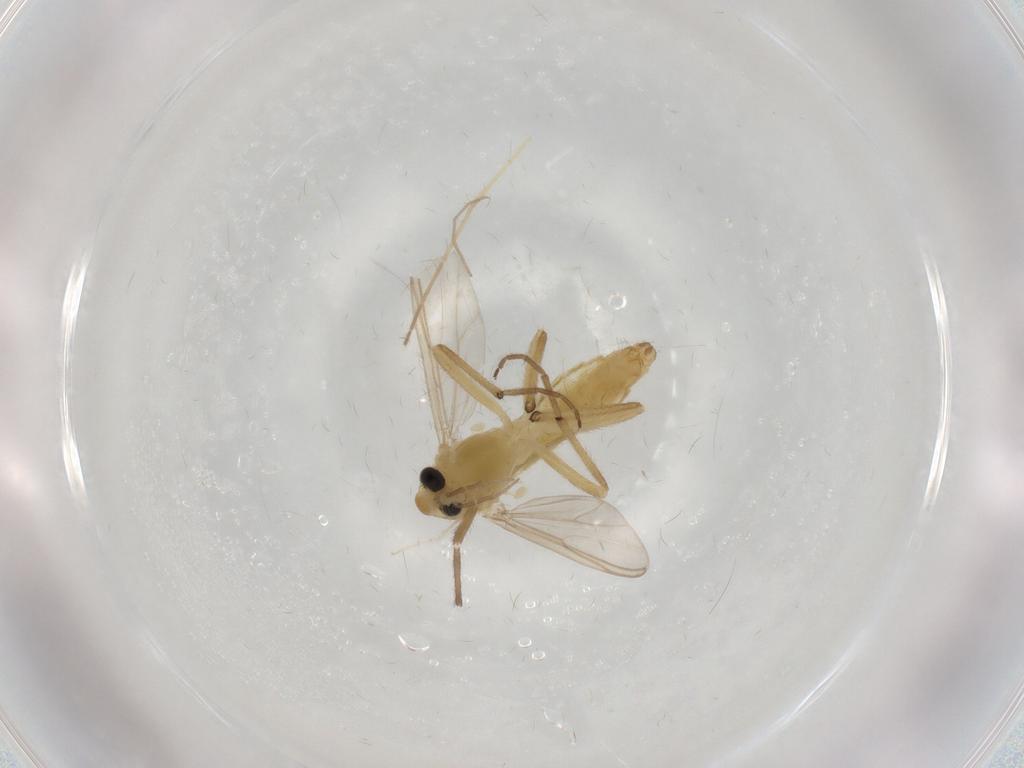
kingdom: Animalia
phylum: Arthropoda
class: Insecta
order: Diptera
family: Chironomidae
